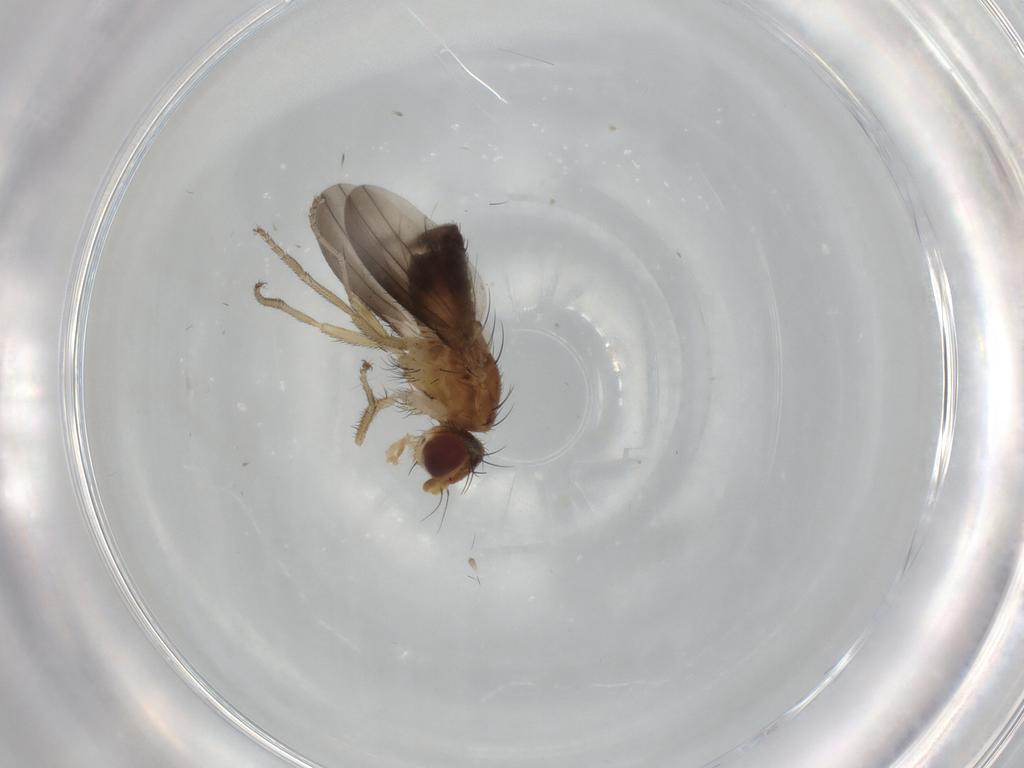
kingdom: Animalia
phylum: Arthropoda
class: Insecta
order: Diptera
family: Heleomyzidae
